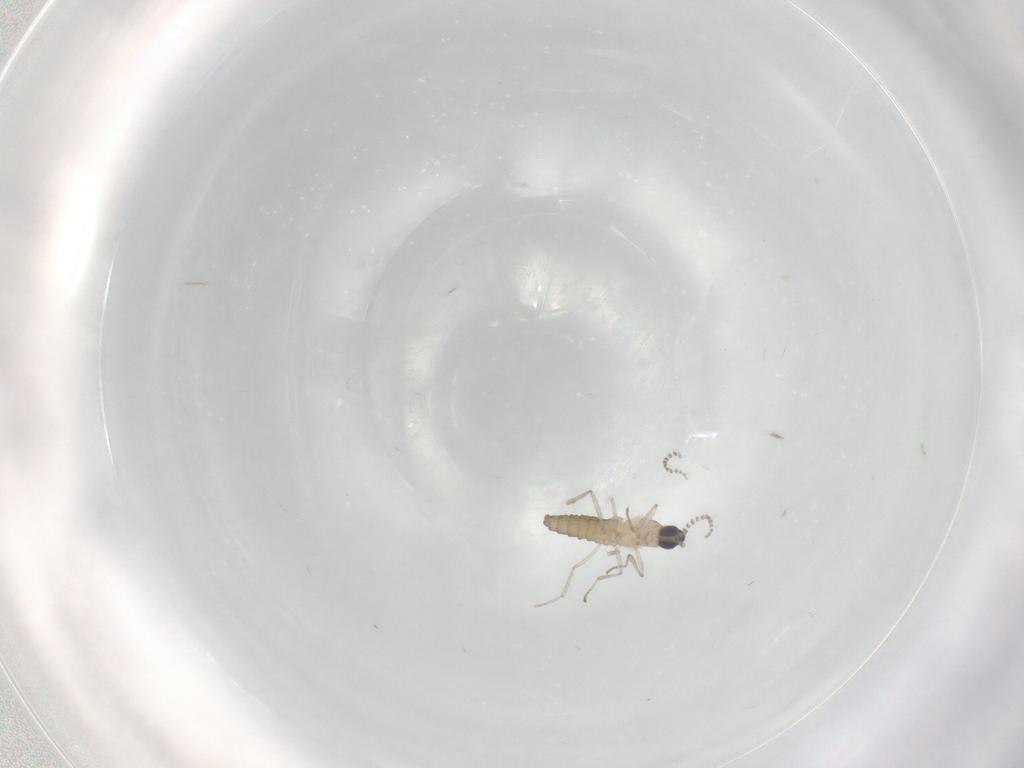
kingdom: Animalia
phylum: Arthropoda
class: Insecta
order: Diptera
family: Cecidomyiidae
